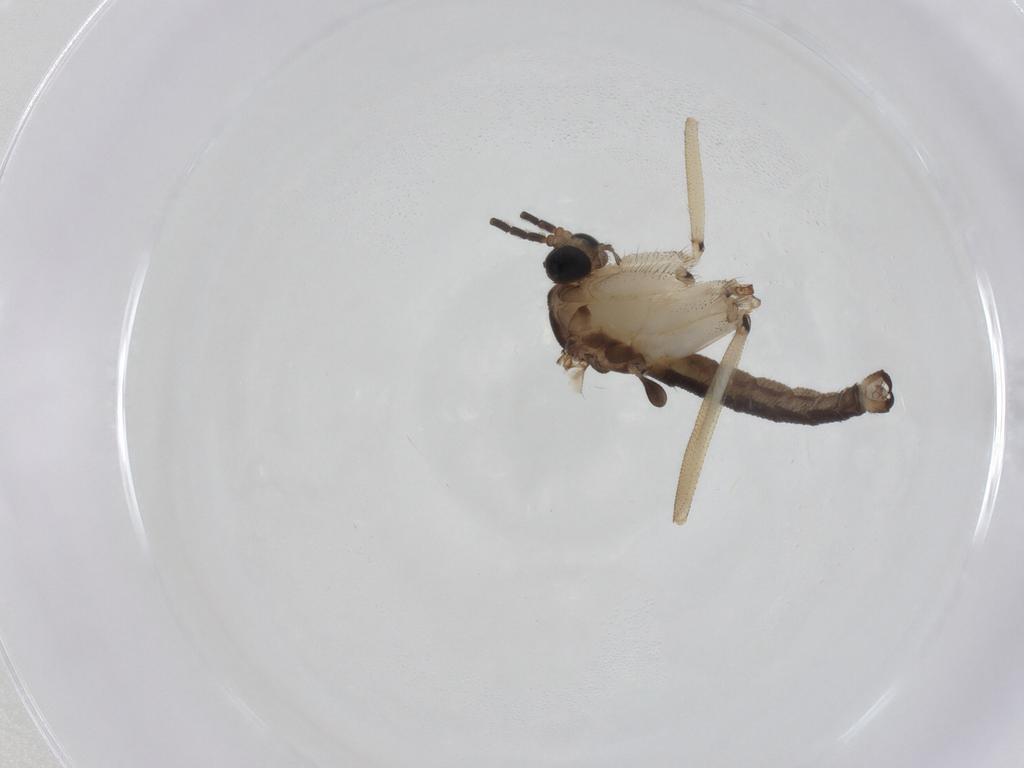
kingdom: Animalia
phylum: Arthropoda
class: Insecta
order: Diptera
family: Sciaridae
